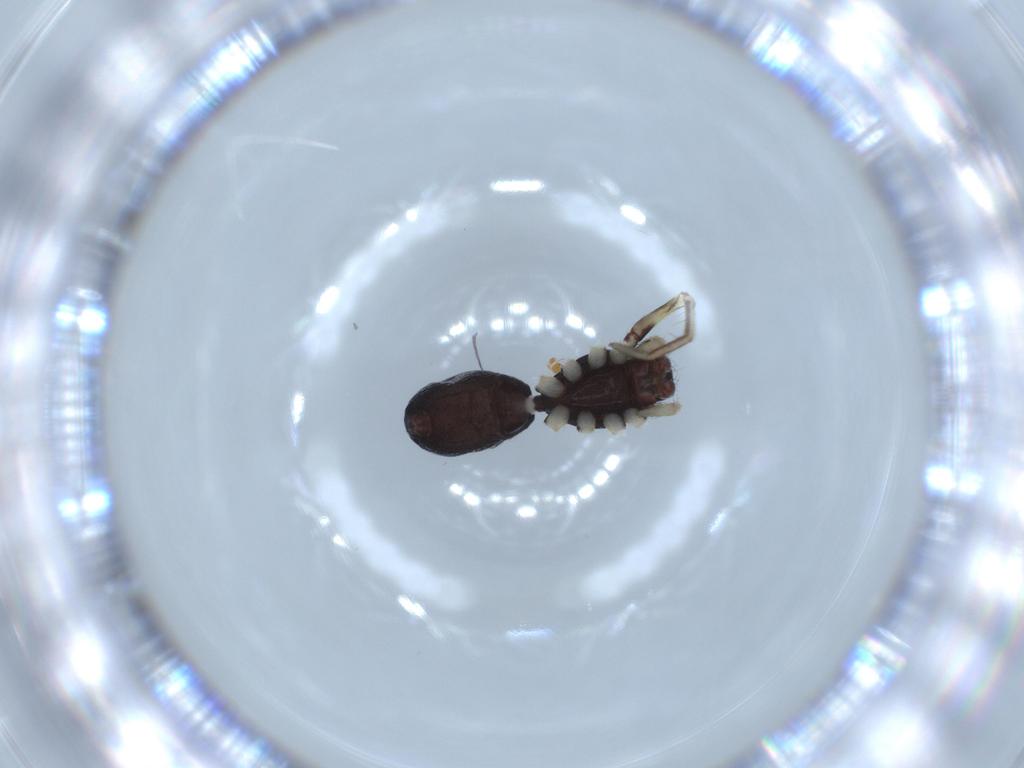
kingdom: Animalia
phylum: Arthropoda
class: Arachnida
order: Araneae
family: Corinnidae
